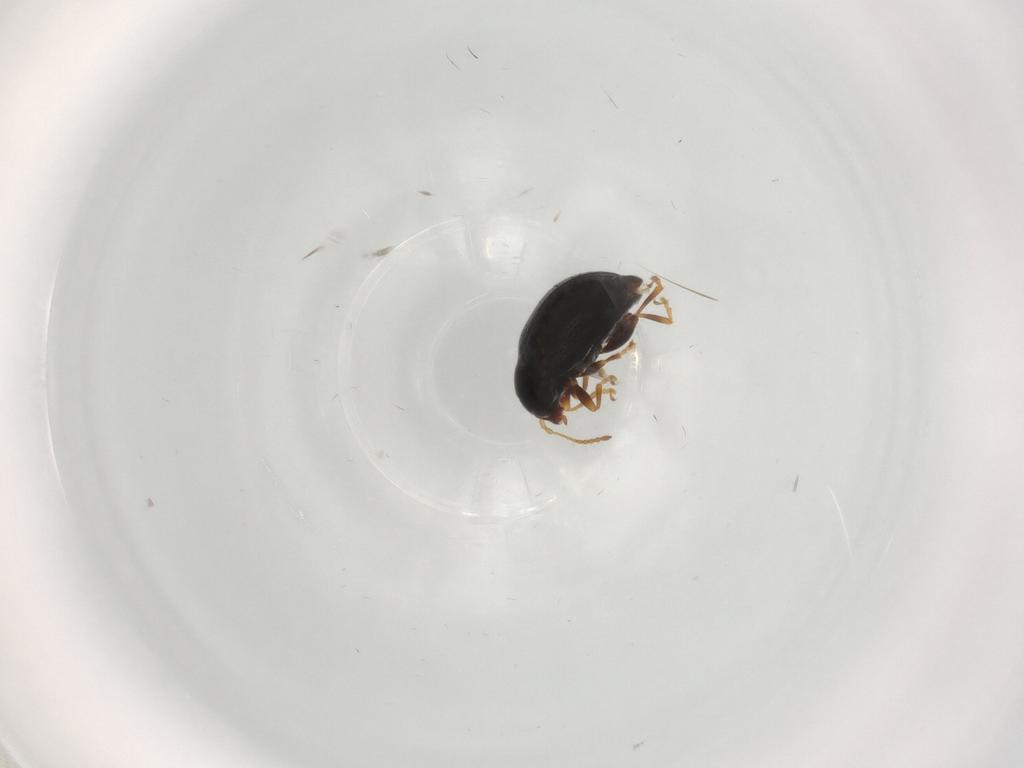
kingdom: Animalia
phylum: Arthropoda
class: Insecta
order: Coleoptera
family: Chrysomelidae
